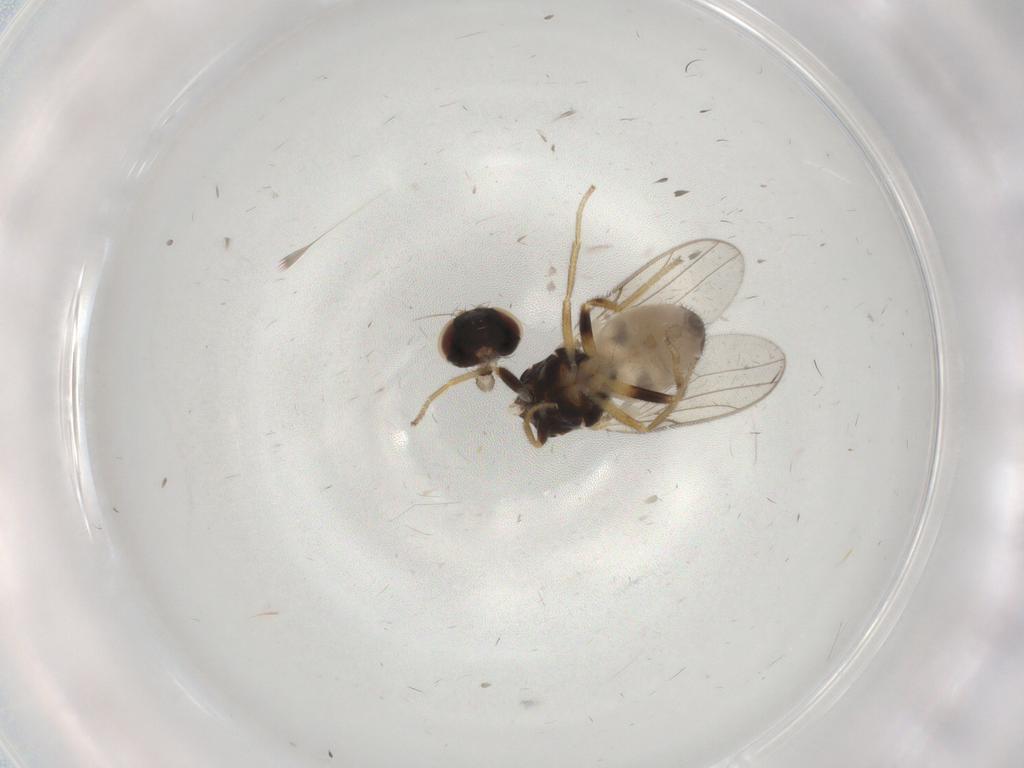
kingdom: Animalia
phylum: Arthropoda
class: Insecta
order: Diptera
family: Chloropidae
